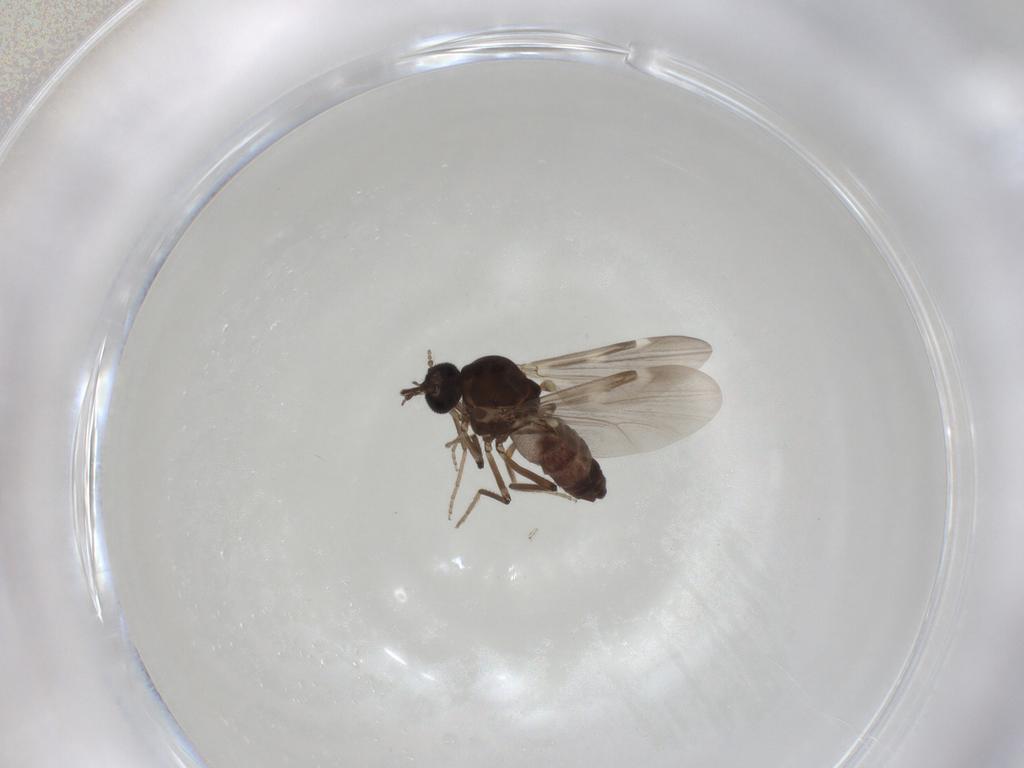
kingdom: Animalia
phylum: Arthropoda
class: Insecta
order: Diptera
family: Ceratopogonidae
